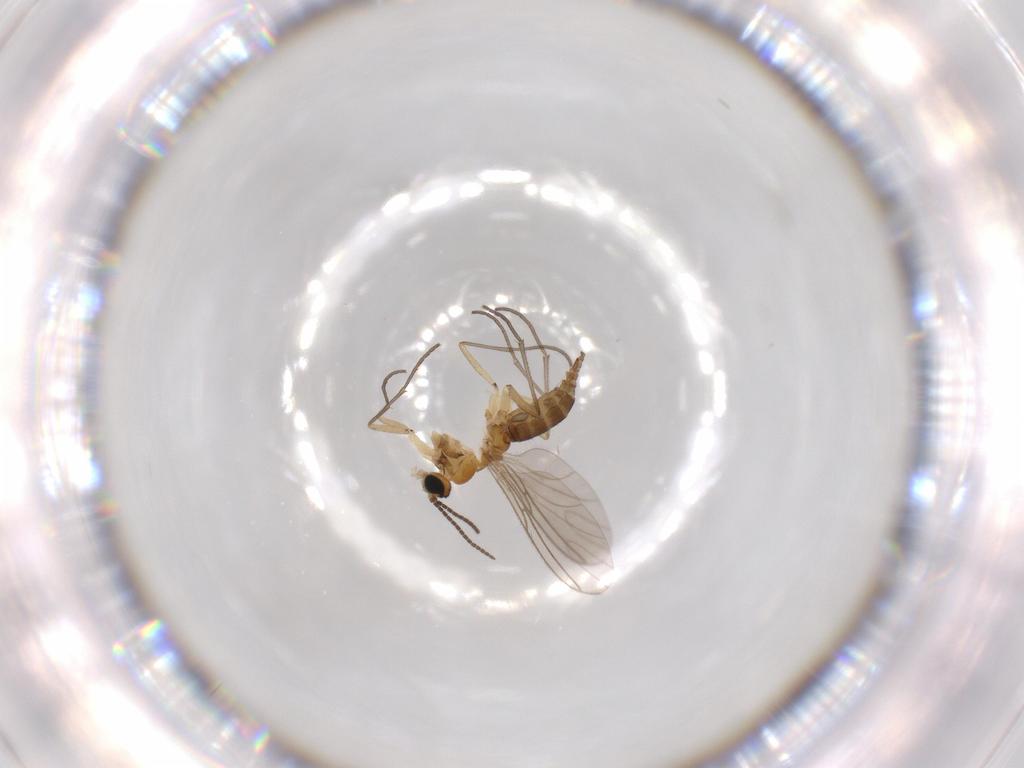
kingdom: Animalia
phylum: Arthropoda
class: Insecta
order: Diptera
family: Sciaridae
